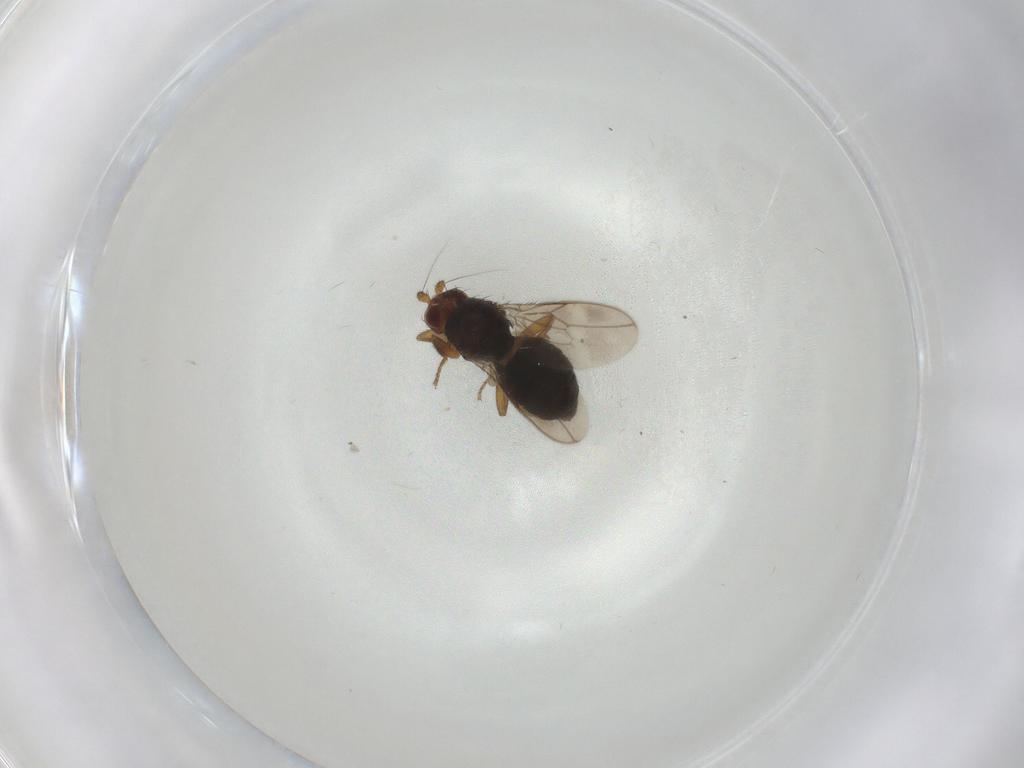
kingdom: Animalia
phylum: Arthropoda
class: Insecta
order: Diptera
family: Sphaeroceridae
